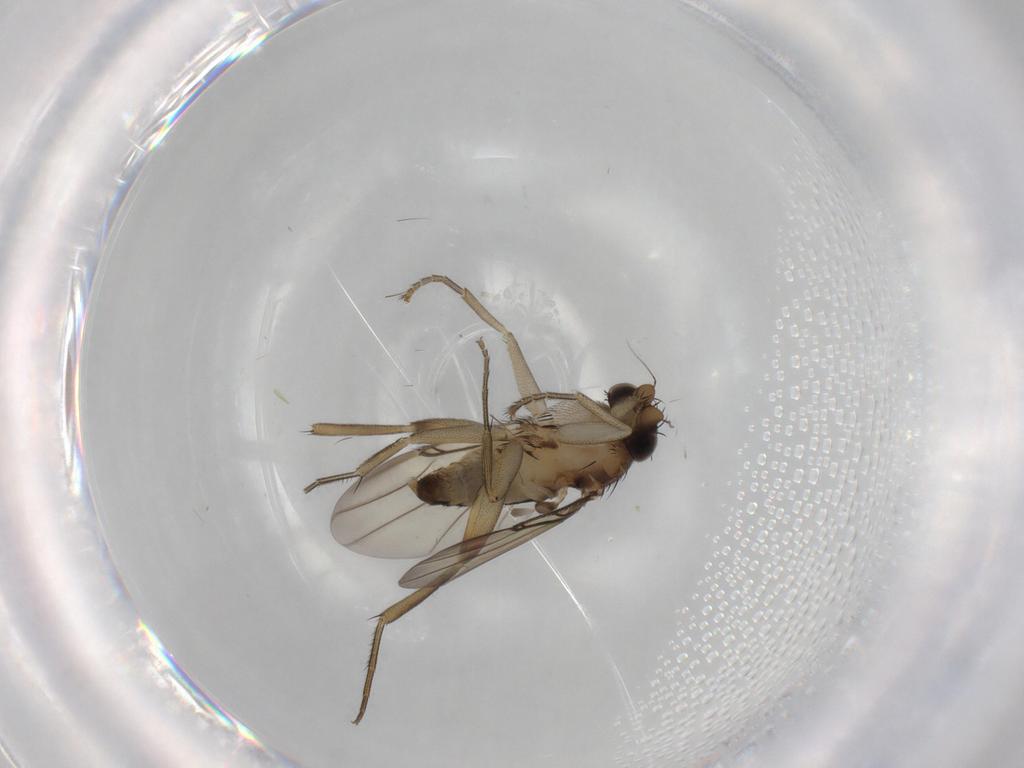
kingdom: Animalia
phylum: Arthropoda
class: Insecta
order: Diptera
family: Phoridae
